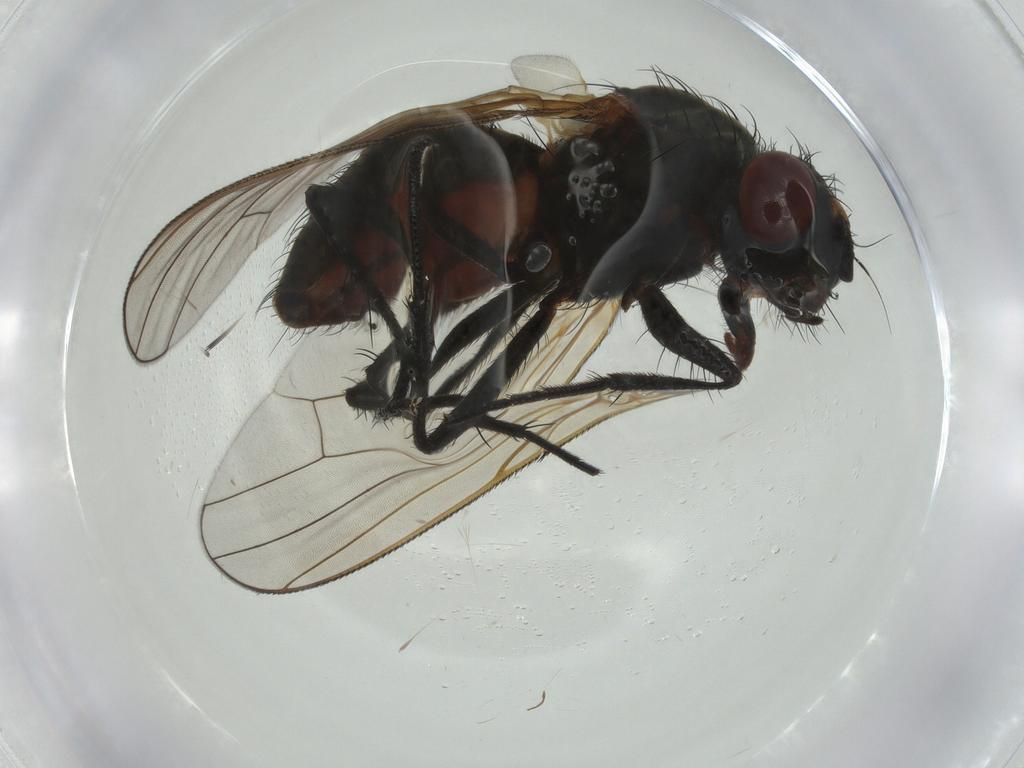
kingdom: Animalia
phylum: Arthropoda
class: Insecta
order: Diptera
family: Anthomyiidae
